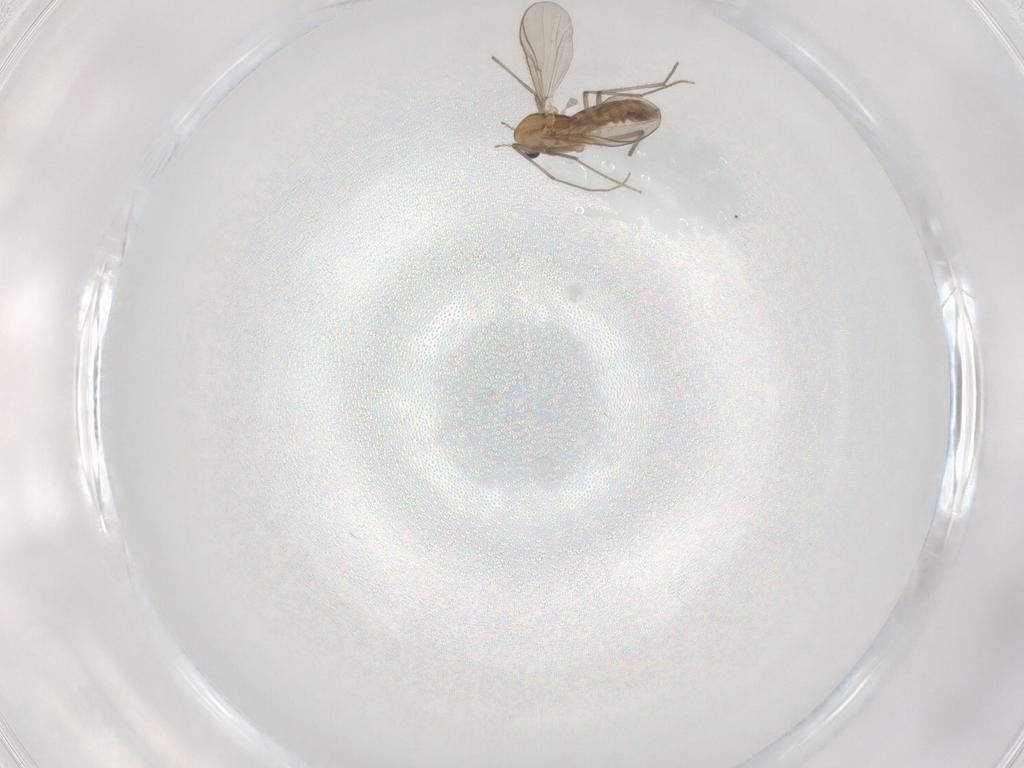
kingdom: Animalia
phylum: Arthropoda
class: Insecta
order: Diptera
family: Chironomidae
